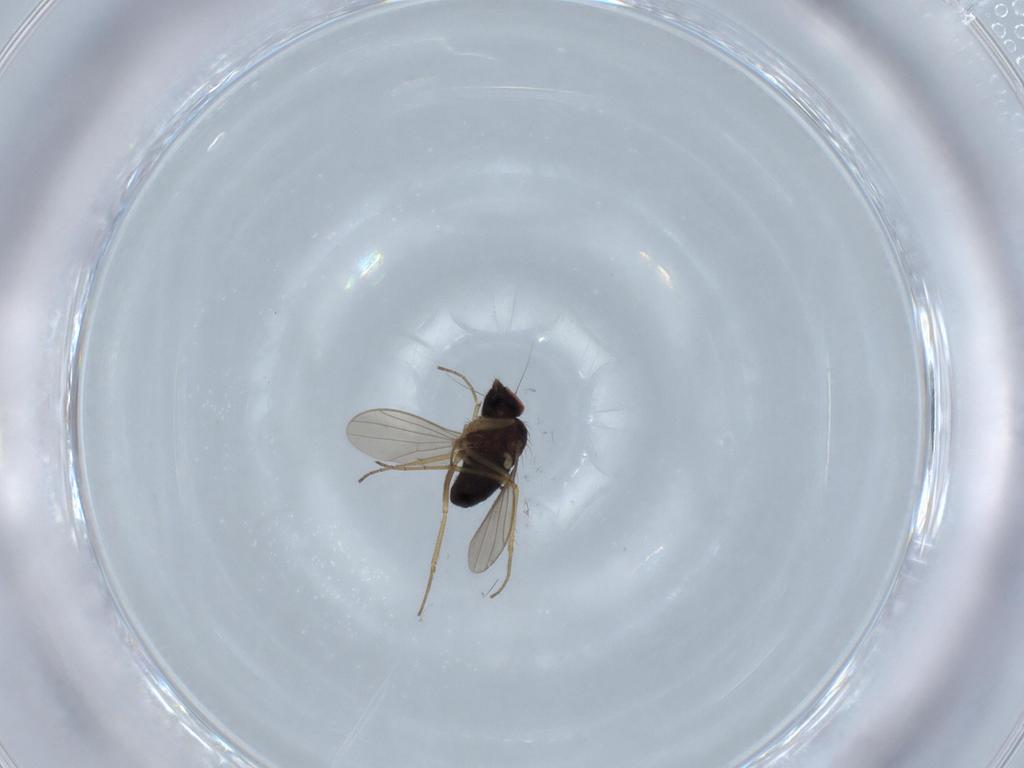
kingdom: Animalia
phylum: Arthropoda
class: Insecta
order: Diptera
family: Dolichopodidae
